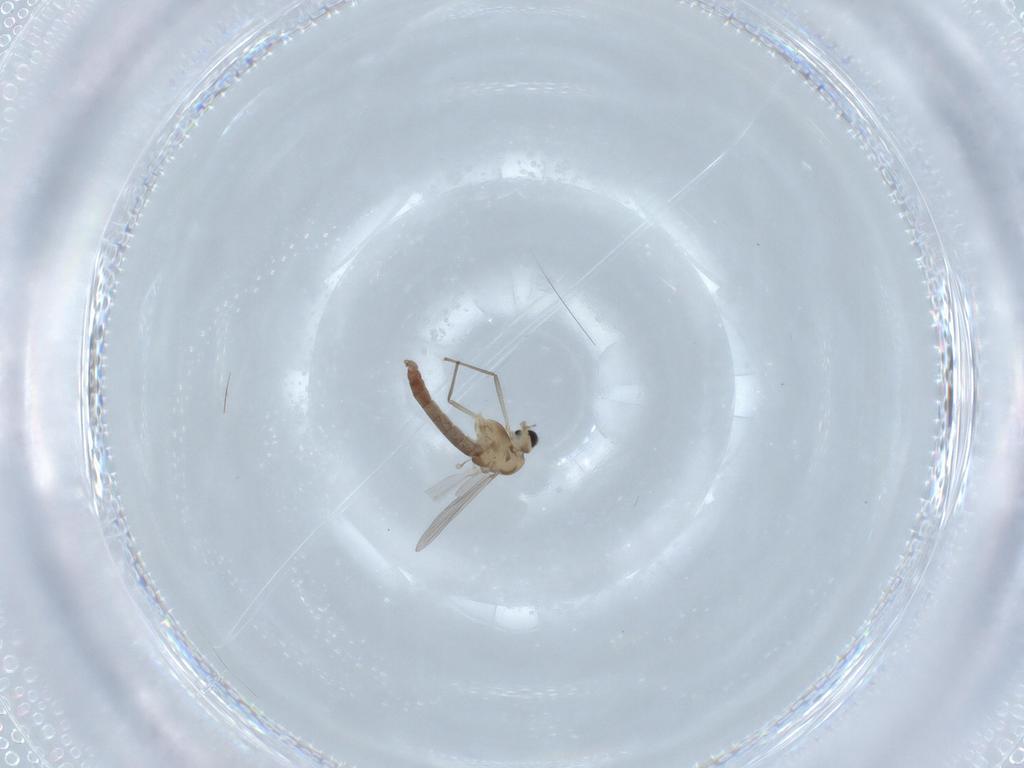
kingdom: Animalia
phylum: Arthropoda
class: Insecta
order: Diptera
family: Chironomidae
